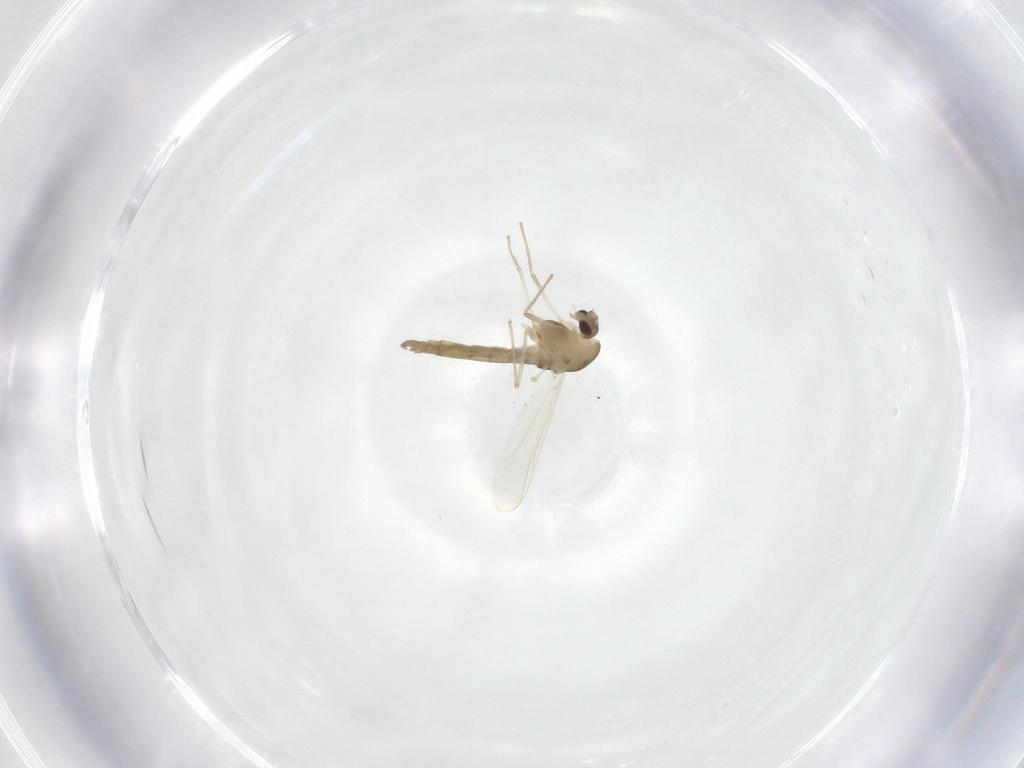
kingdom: Animalia
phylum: Arthropoda
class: Insecta
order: Diptera
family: Chironomidae
